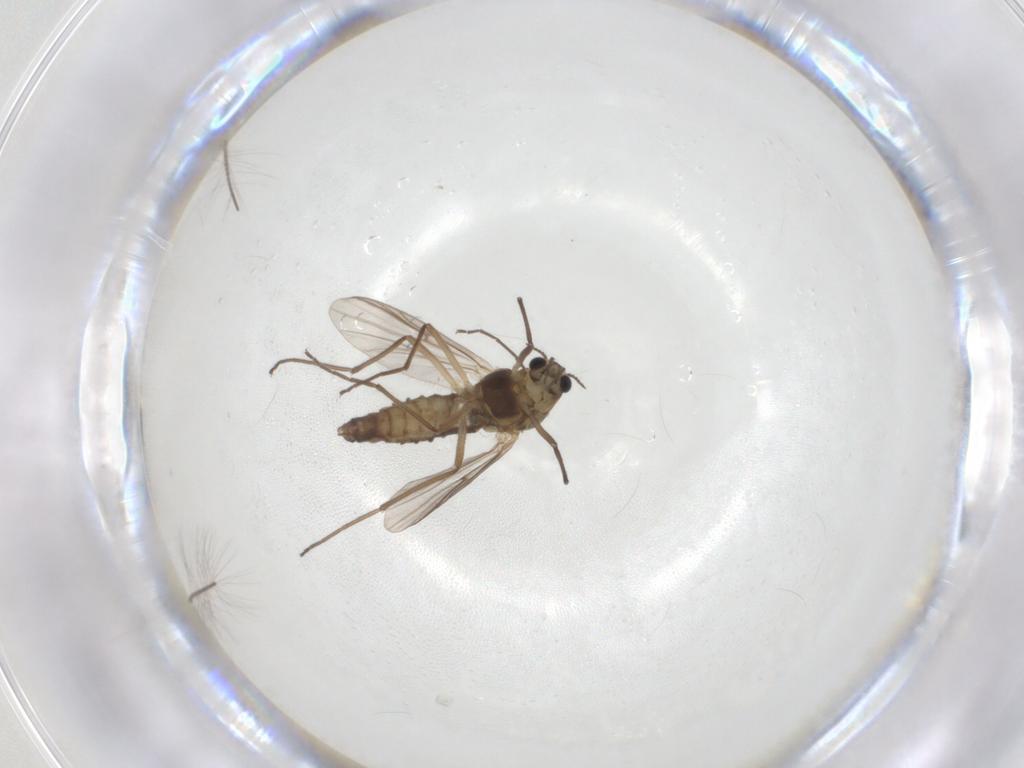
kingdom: Animalia
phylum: Arthropoda
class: Insecta
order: Diptera
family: Chironomidae
